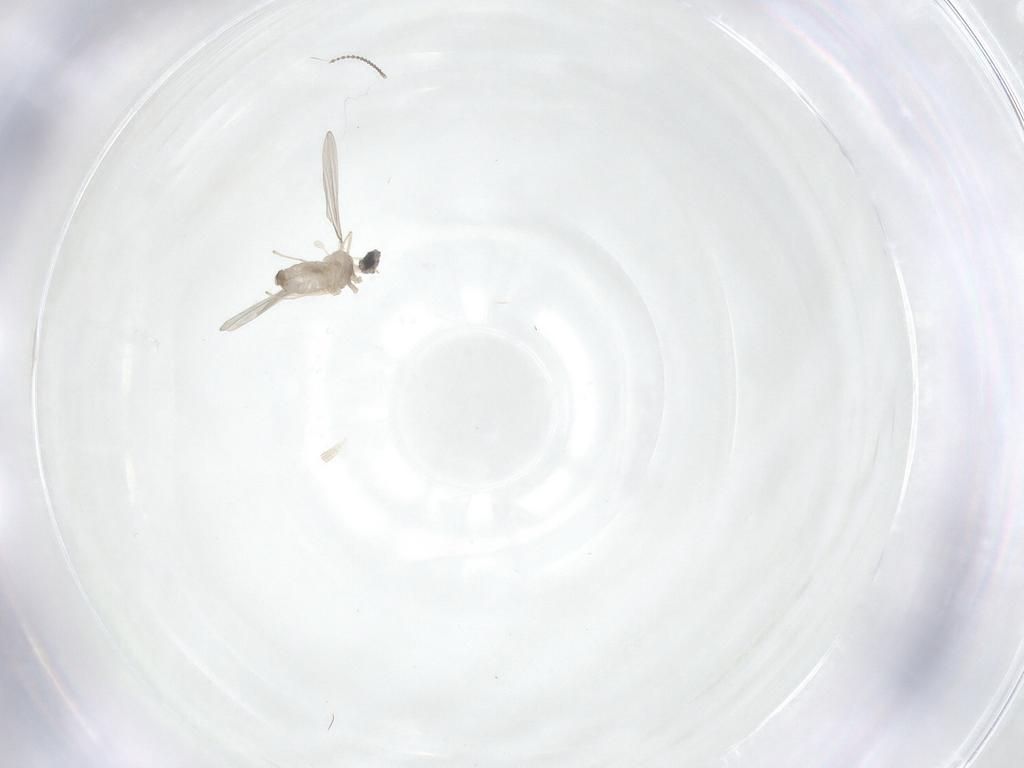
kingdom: Animalia
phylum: Arthropoda
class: Insecta
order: Diptera
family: Cecidomyiidae
